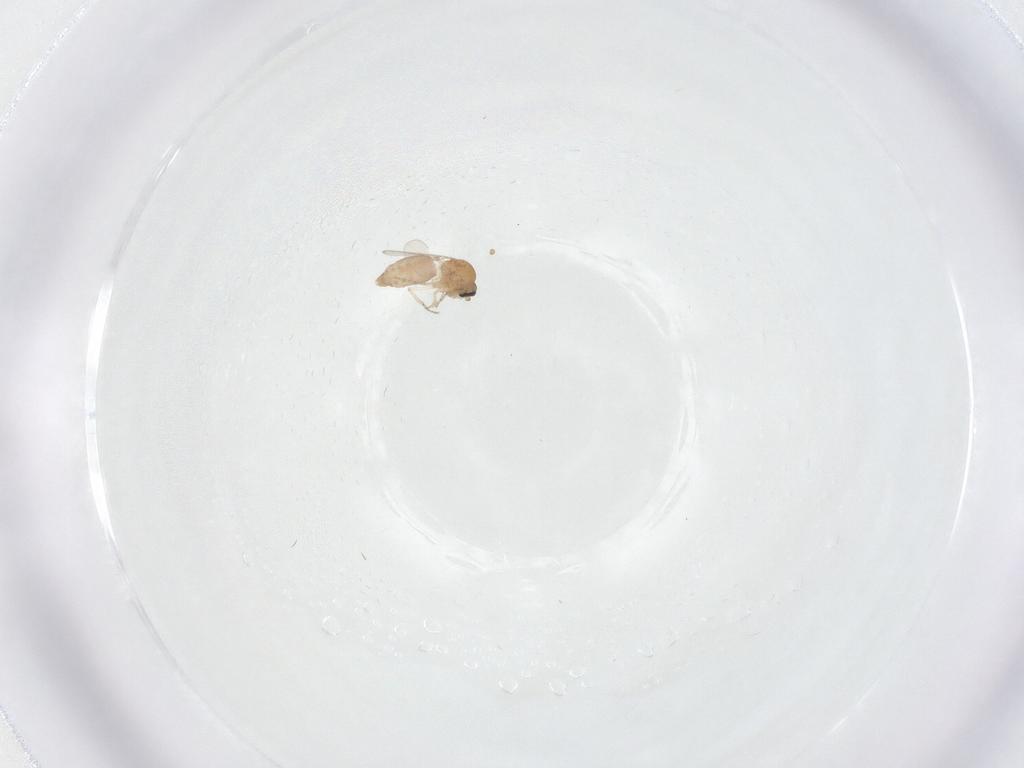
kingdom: Animalia
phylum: Arthropoda
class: Insecta
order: Diptera
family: Ceratopogonidae
